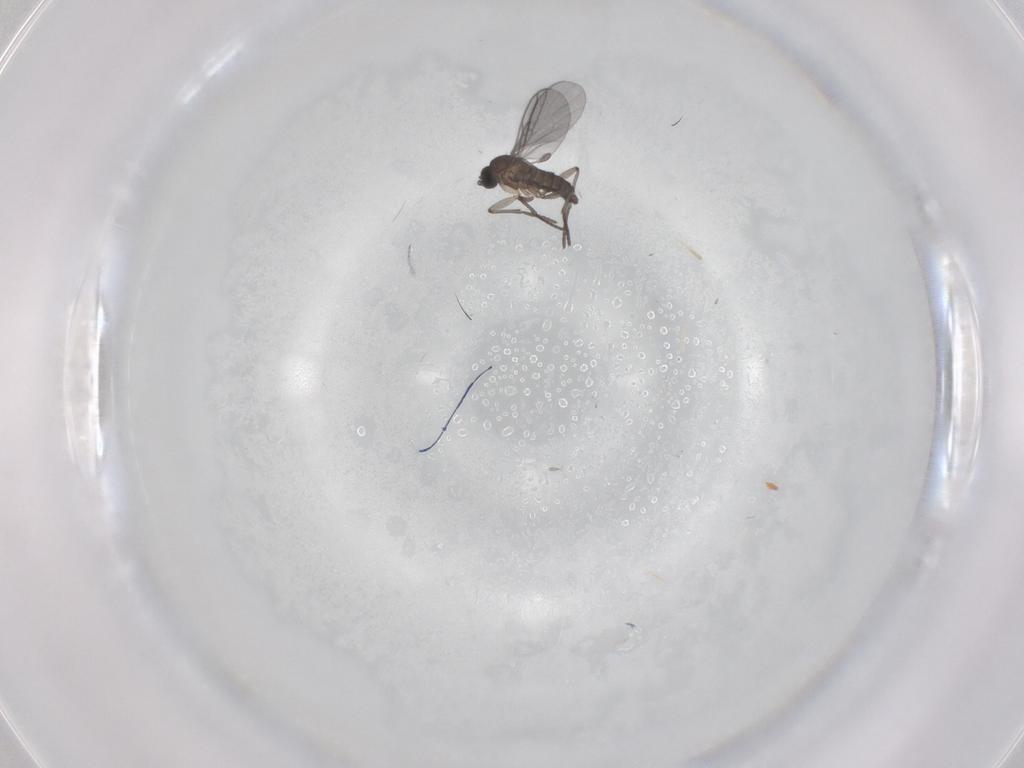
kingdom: Animalia
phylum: Arthropoda
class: Insecta
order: Diptera
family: Sciaridae
